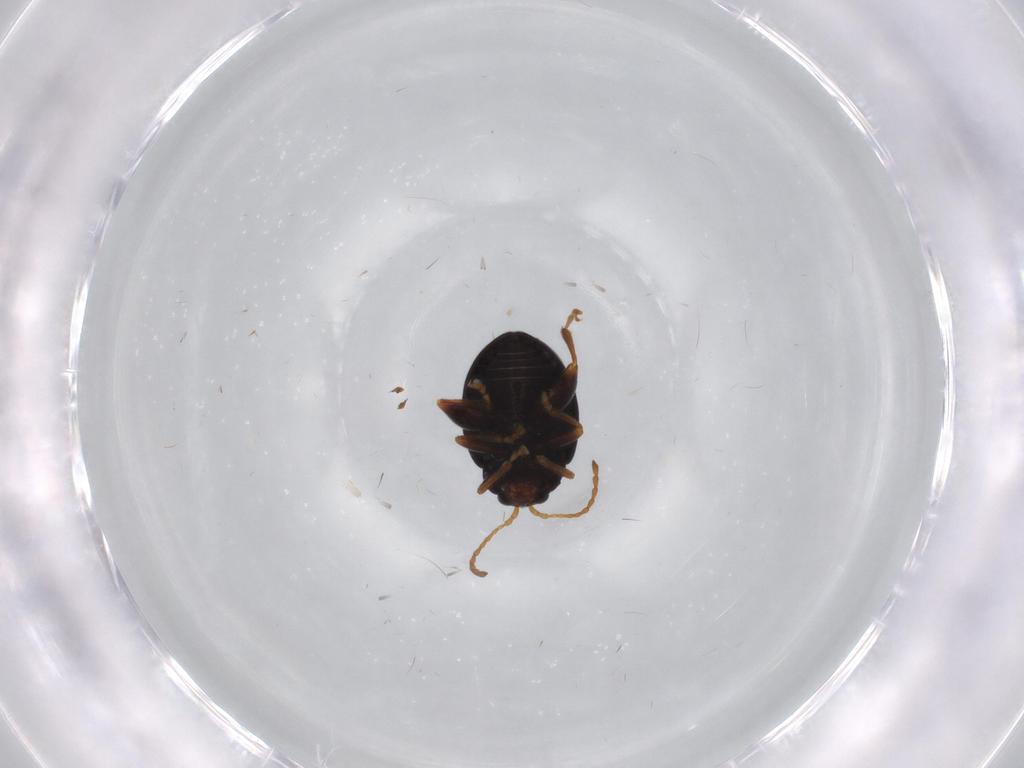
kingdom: Animalia
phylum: Arthropoda
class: Insecta
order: Coleoptera
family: Chrysomelidae
